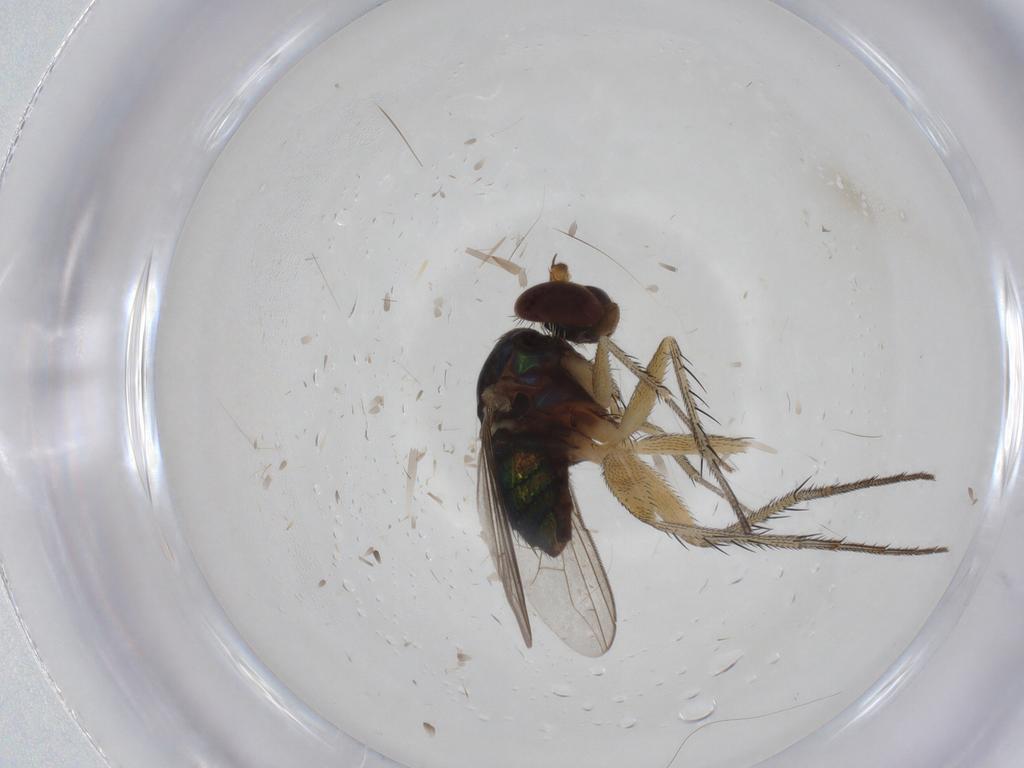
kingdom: Animalia
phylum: Arthropoda
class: Insecta
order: Diptera
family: Dolichopodidae
